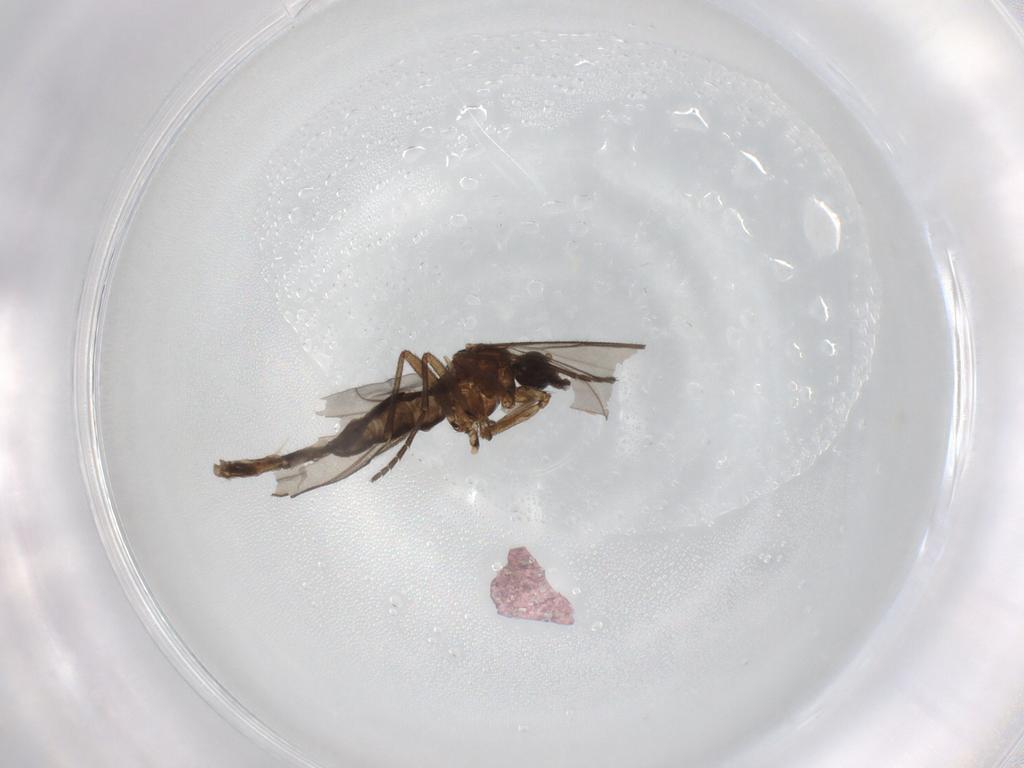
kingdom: Animalia
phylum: Arthropoda
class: Insecta
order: Diptera
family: Sciaridae
